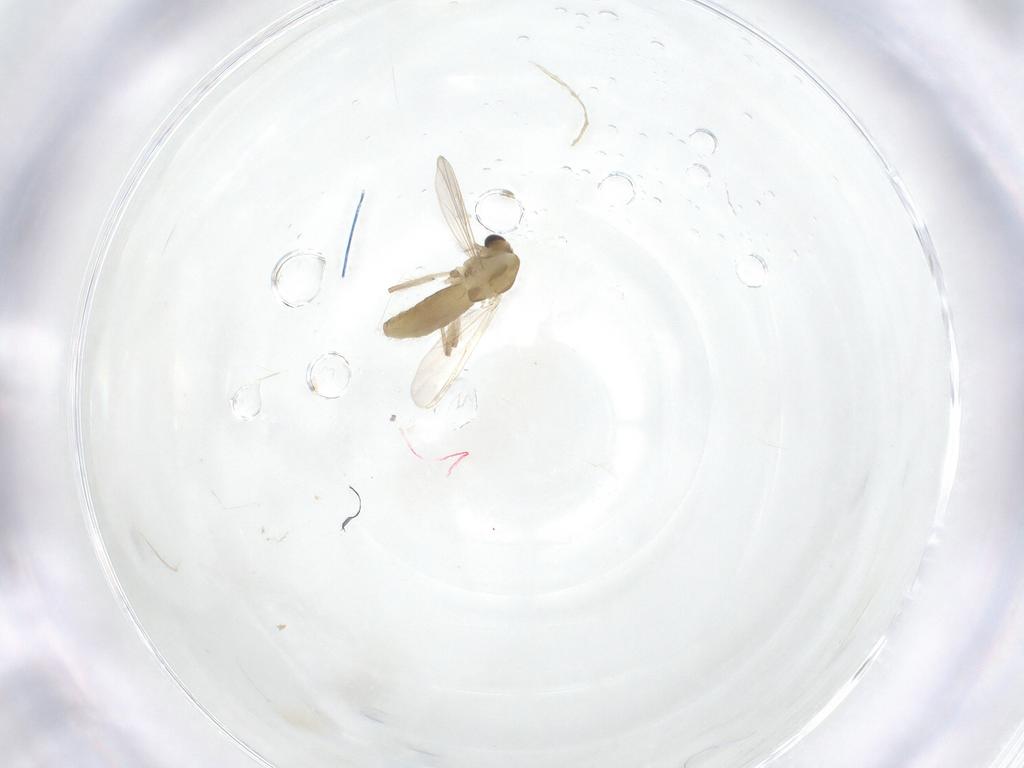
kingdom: Animalia
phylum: Arthropoda
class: Insecta
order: Diptera
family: Chironomidae
